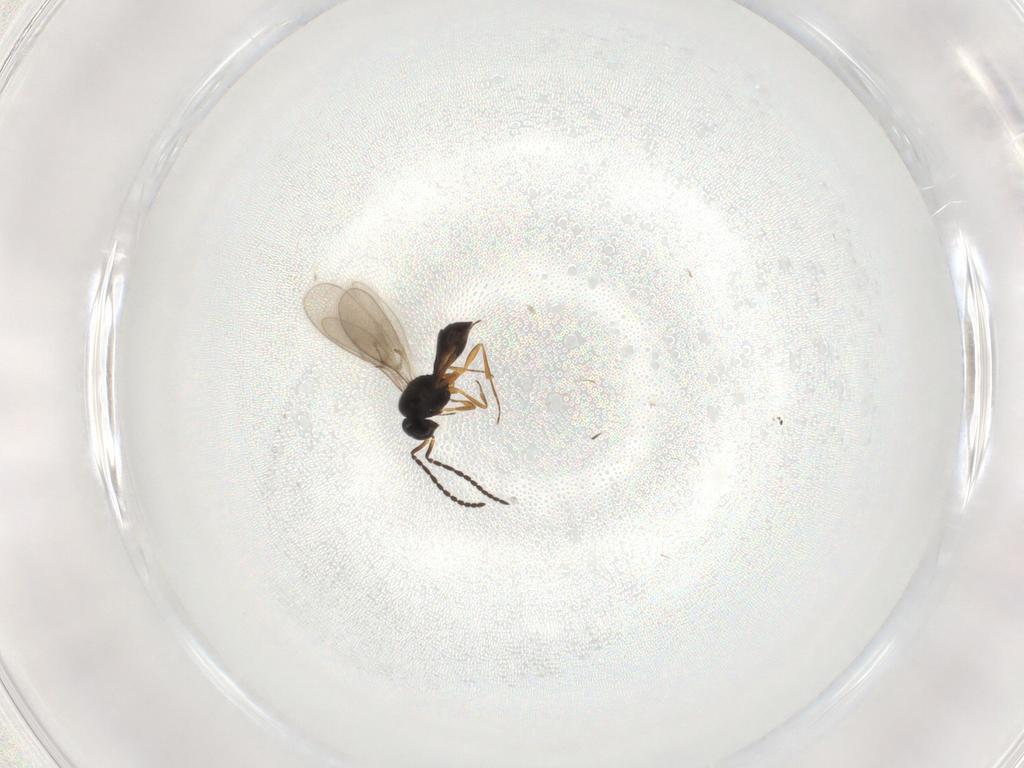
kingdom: Animalia
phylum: Arthropoda
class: Insecta
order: Hymenoptera
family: Scelionidae
